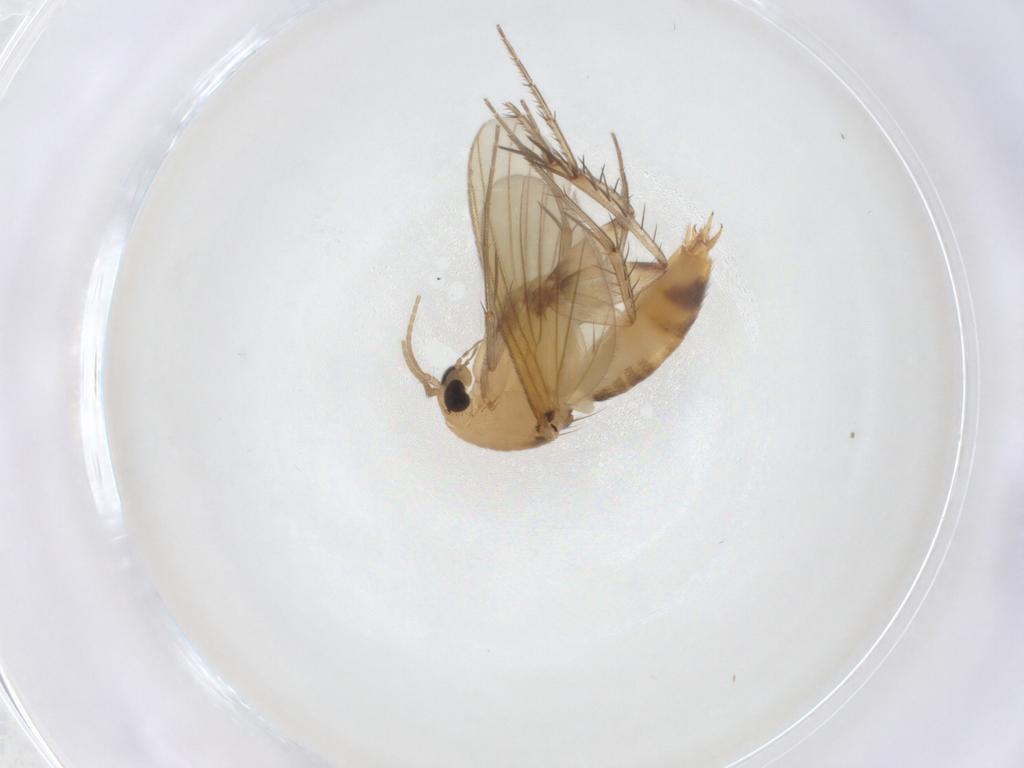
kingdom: Animalia
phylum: Arthropoda
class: Insecta
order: Diptera
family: Mycetophilidae
